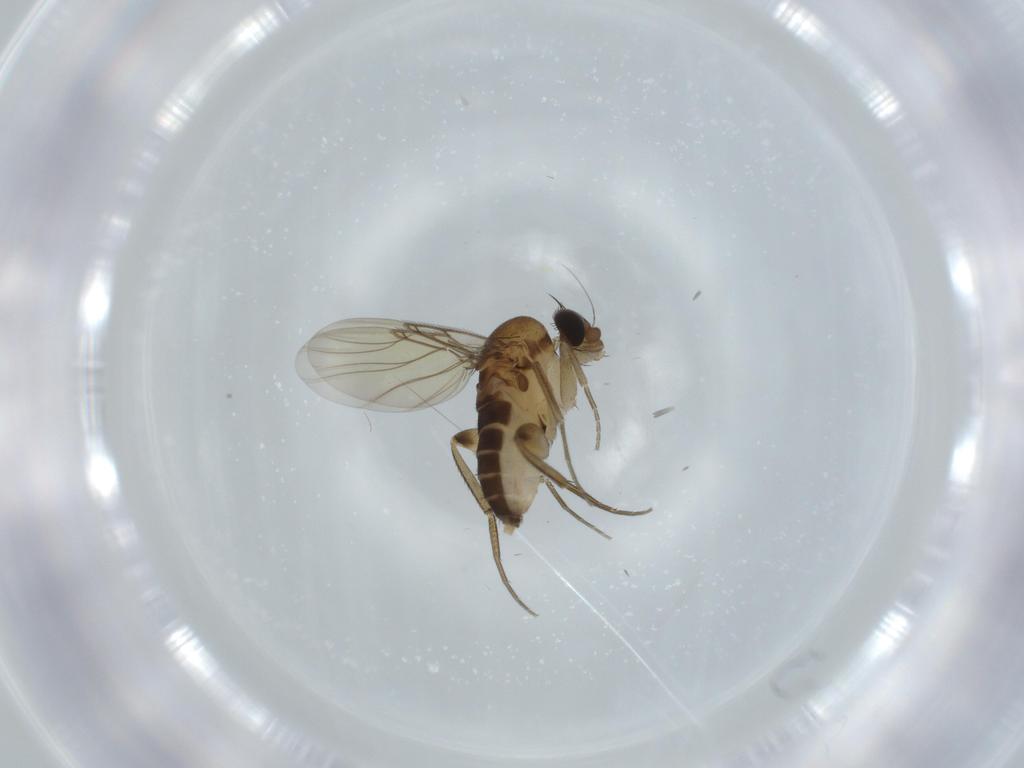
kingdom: Animalia
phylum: Arthropoda
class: Insecta
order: Diptera
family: Phoridae
